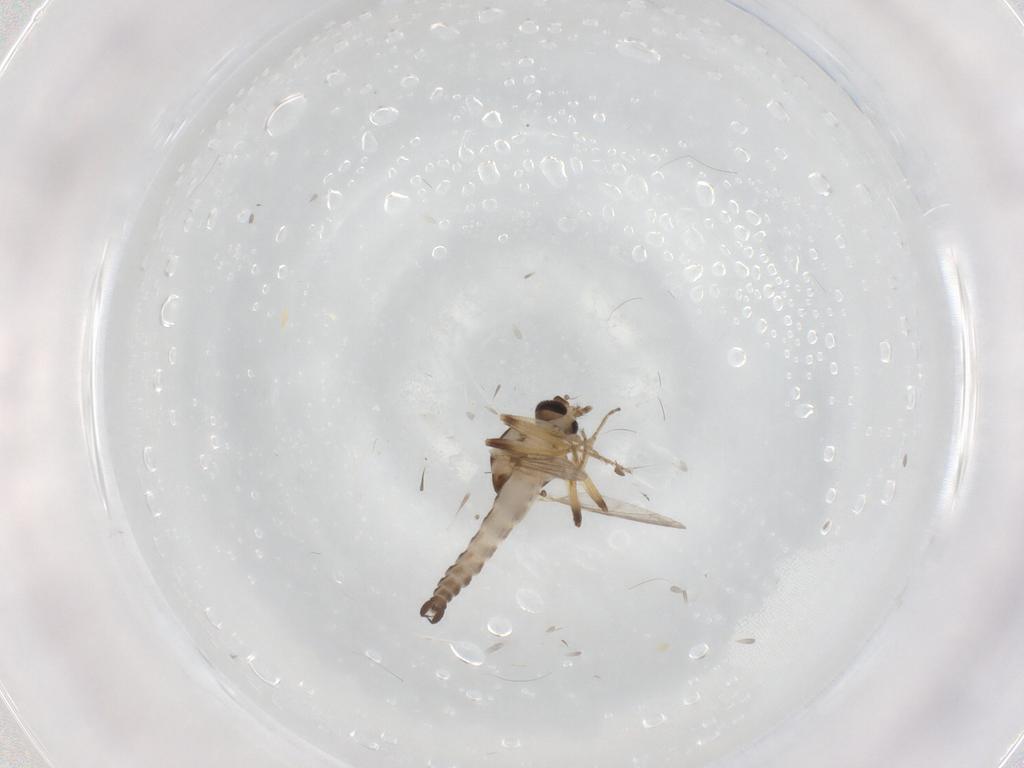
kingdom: Animalia
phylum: Arthropoda
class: Insecta
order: Diptera
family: Ceratopogonidae
